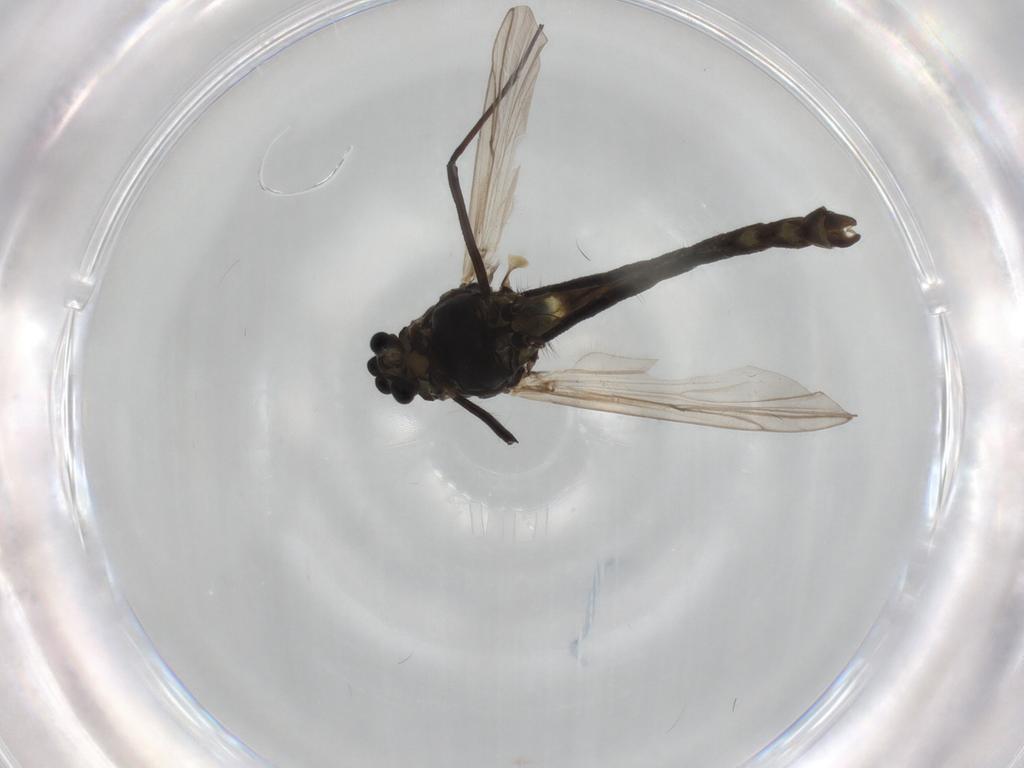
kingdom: Animalia
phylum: Arthropoda
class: Insecta
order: Diptera
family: Chironomidae
